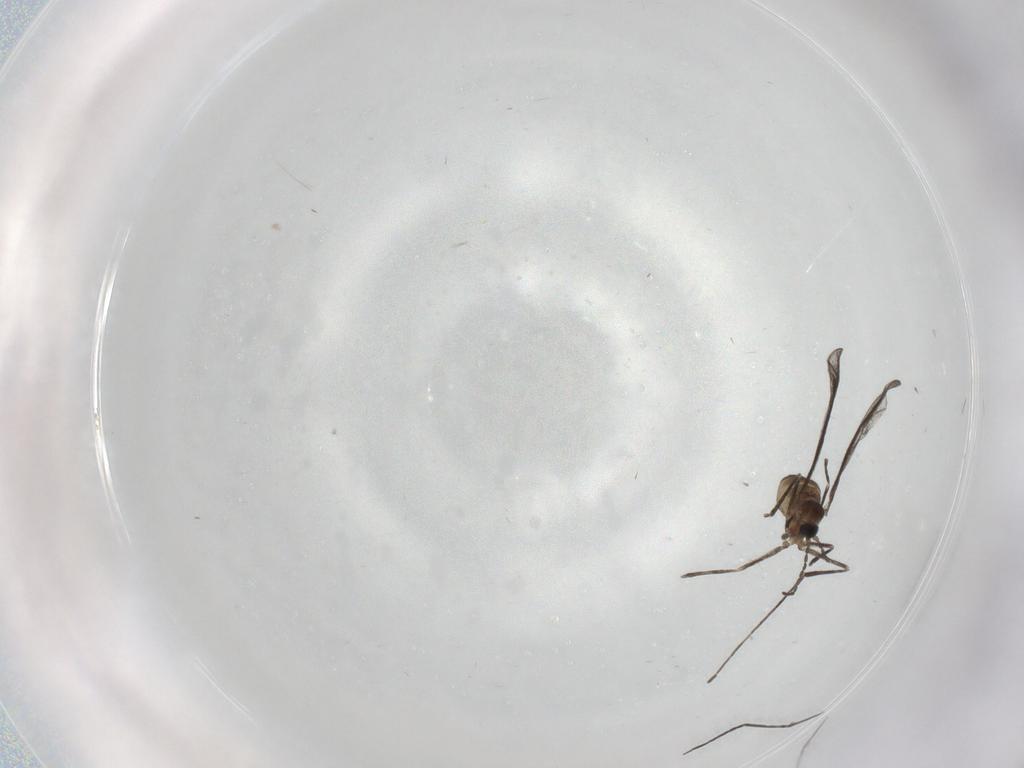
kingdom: Animalia
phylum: Arthropoda
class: Insecta
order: Diptera
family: Cecidomyiidae
